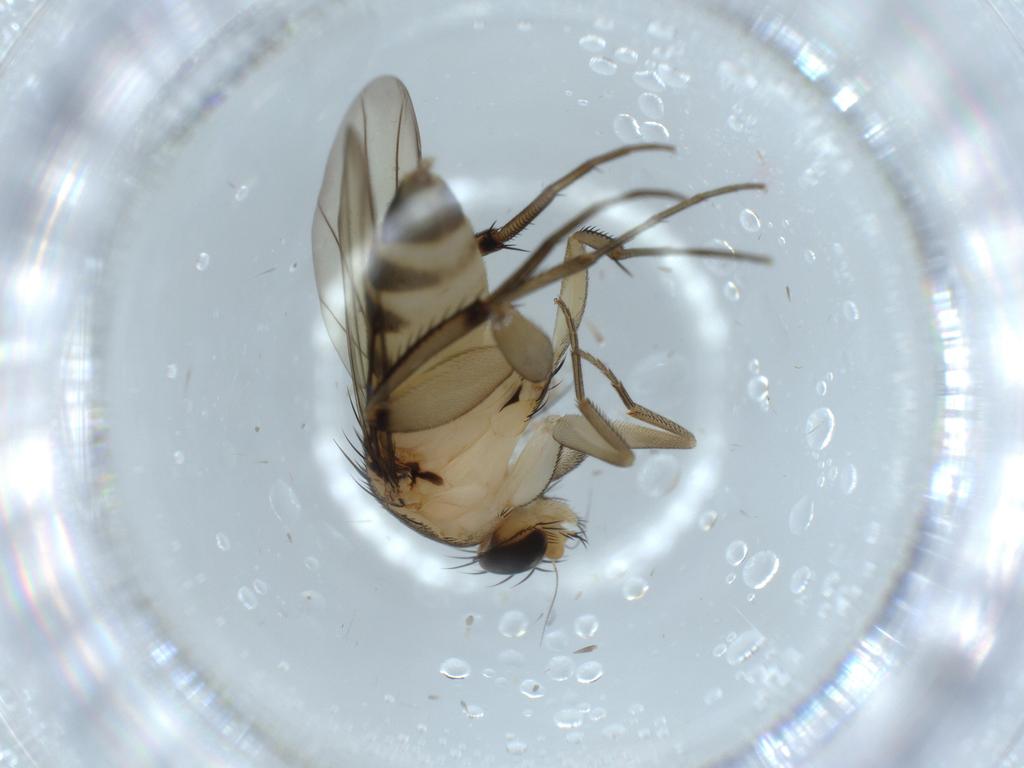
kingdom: Animalia
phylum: Arthropoda
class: Insecta
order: Diptera
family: Phoridae
